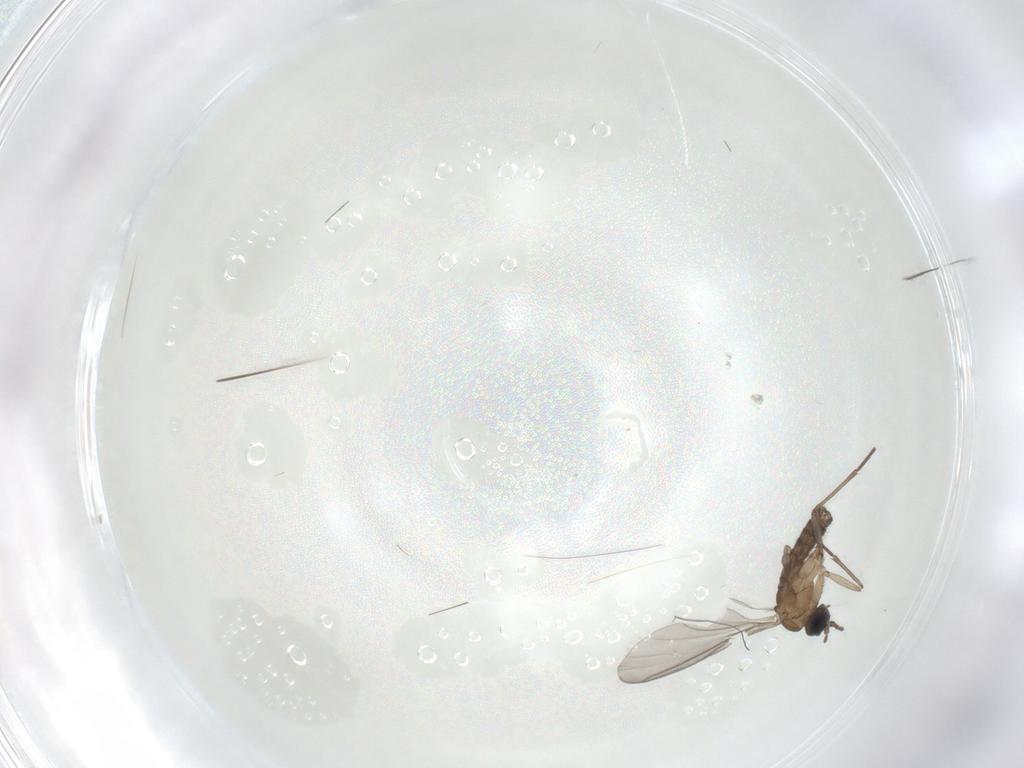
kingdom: Animalia
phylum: Arthropoda
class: Insecta
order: Diptera
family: Sciaridae
